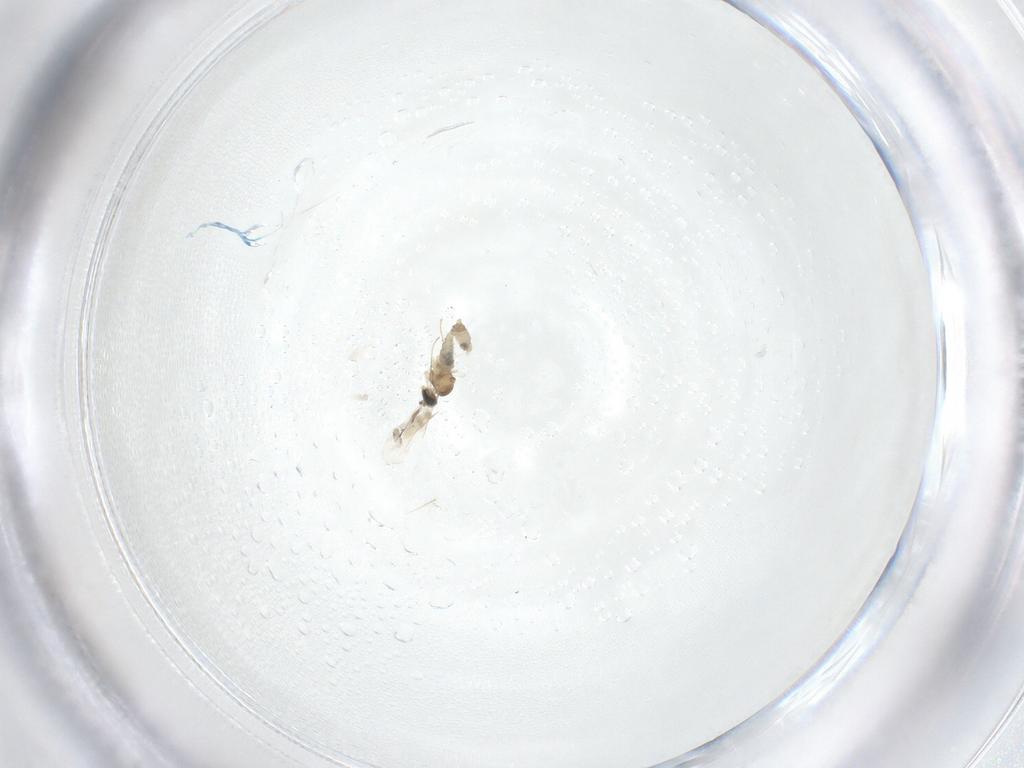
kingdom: Animalia
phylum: Arthropoda
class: Insecta
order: Diptera
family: Cecidomyiidae
